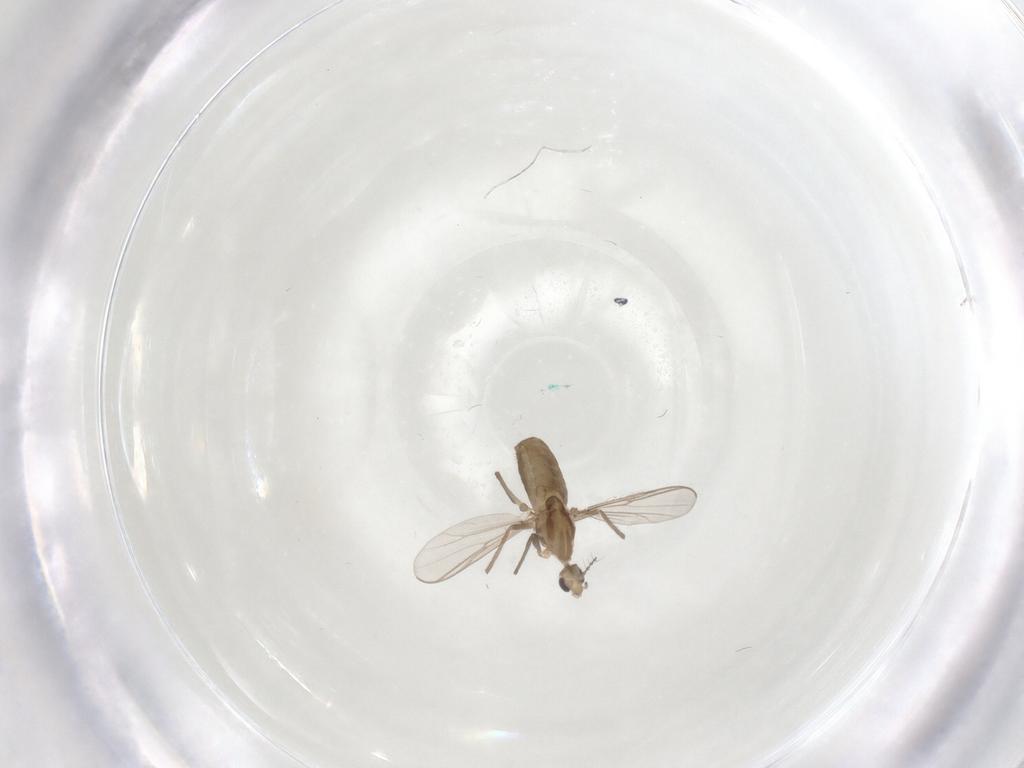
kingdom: Animalia
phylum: Arthropoda
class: Insecta
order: Diptera
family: Chironomidae
